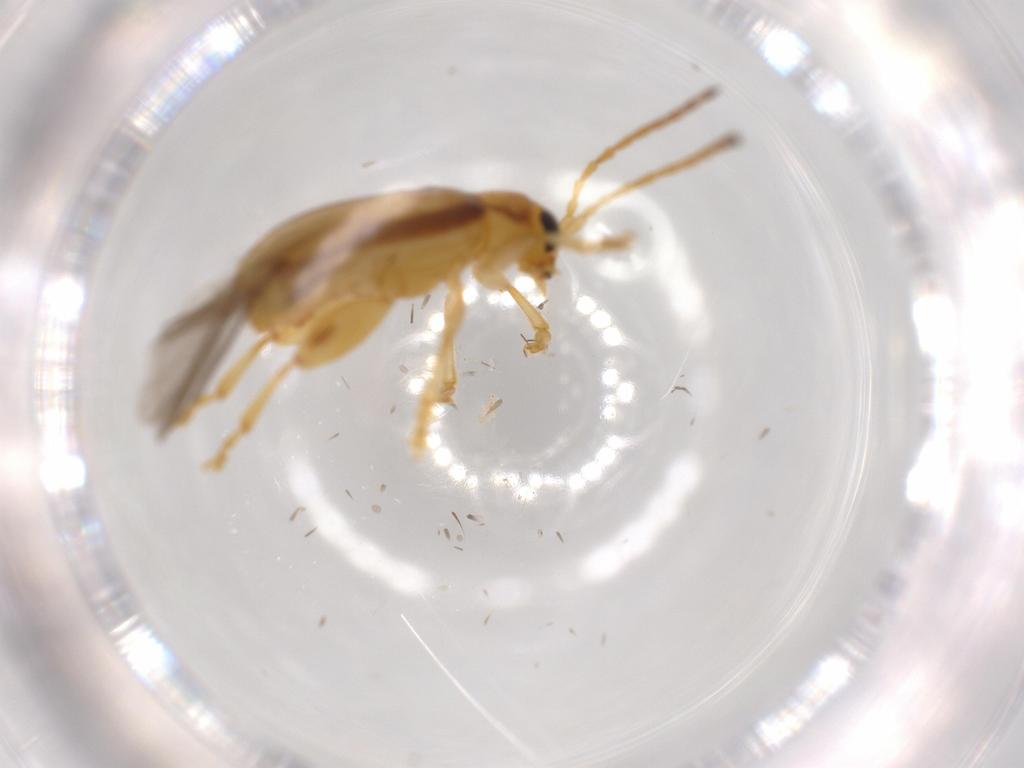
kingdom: Animalia
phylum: Arthropoda
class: Insecta
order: Coleoptera
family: Chrysomelidae
